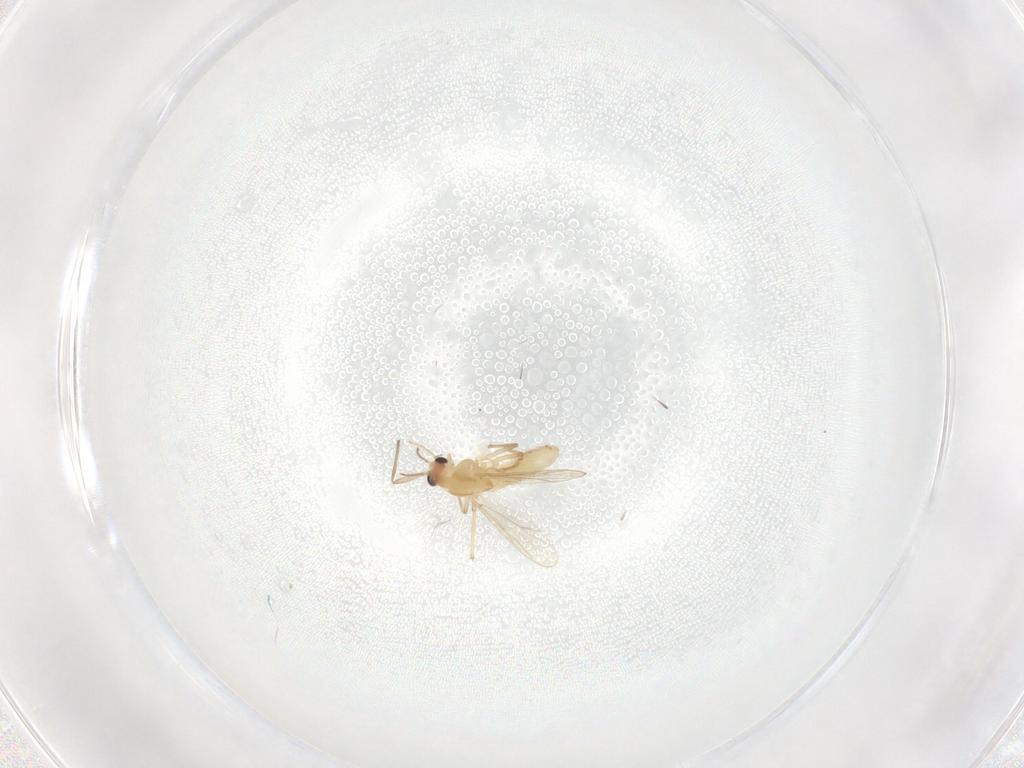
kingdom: Animalia
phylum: Arthropoda
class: Insecta
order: Diptera
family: Chironomidae
